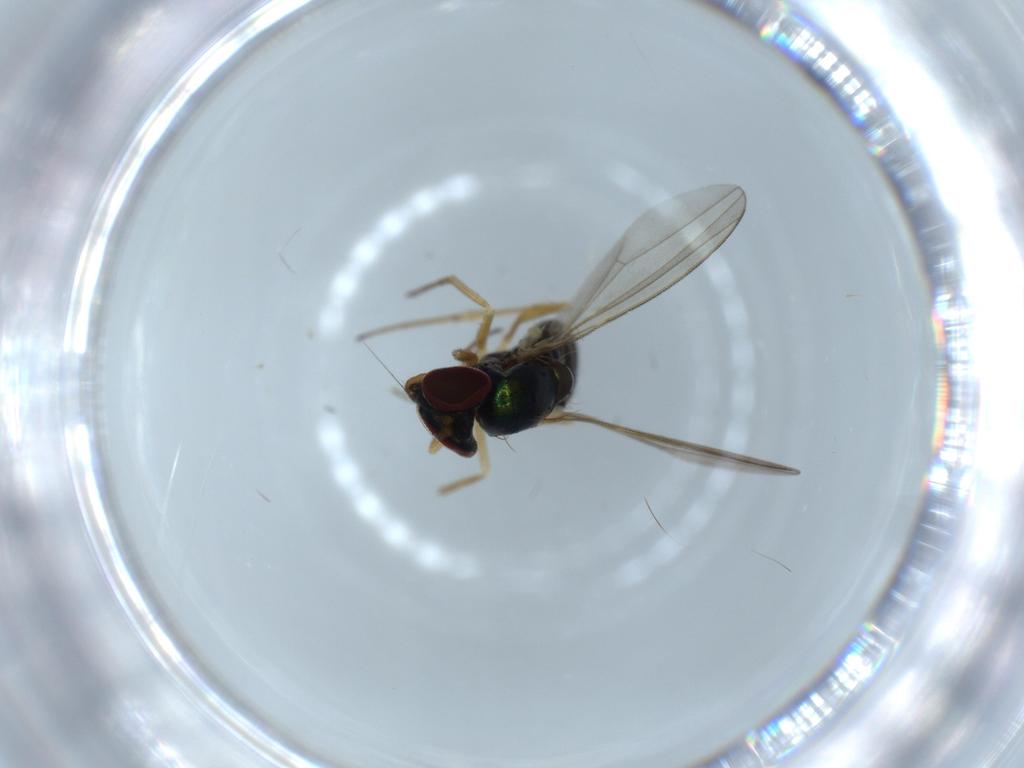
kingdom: Animalia
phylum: Arthropoda
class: Insecta
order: Diptera
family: Dolichopodidae
